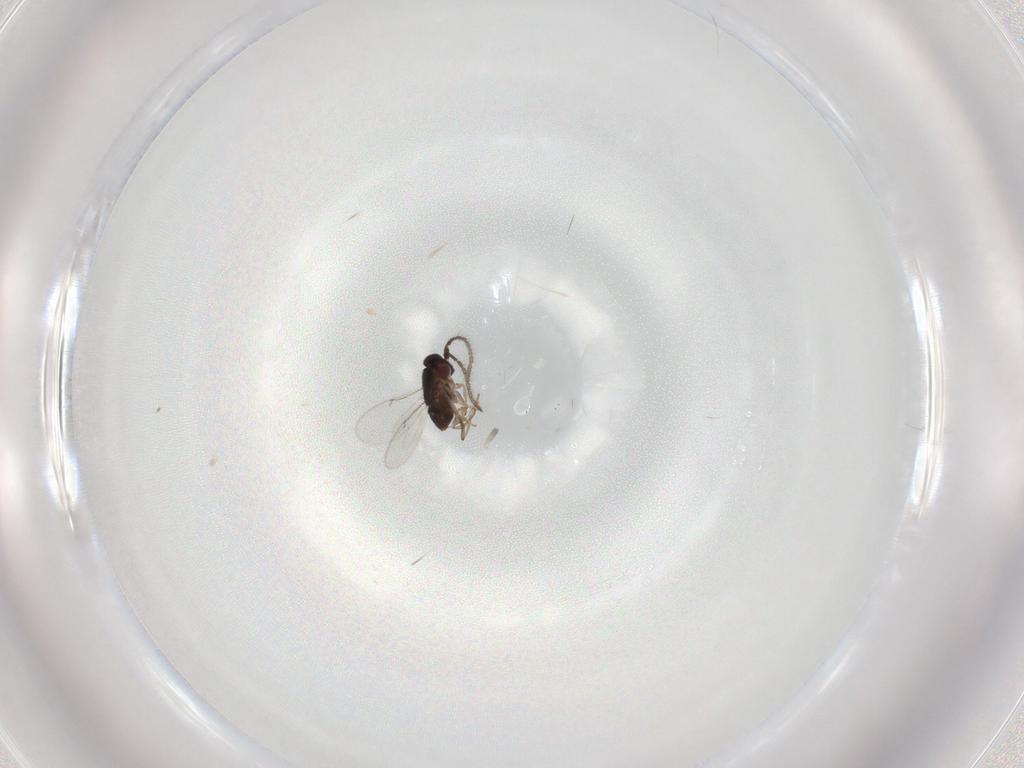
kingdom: Animalia
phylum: Arthropoda
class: Insecta
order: Hymenoptera
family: Encyrtidae
